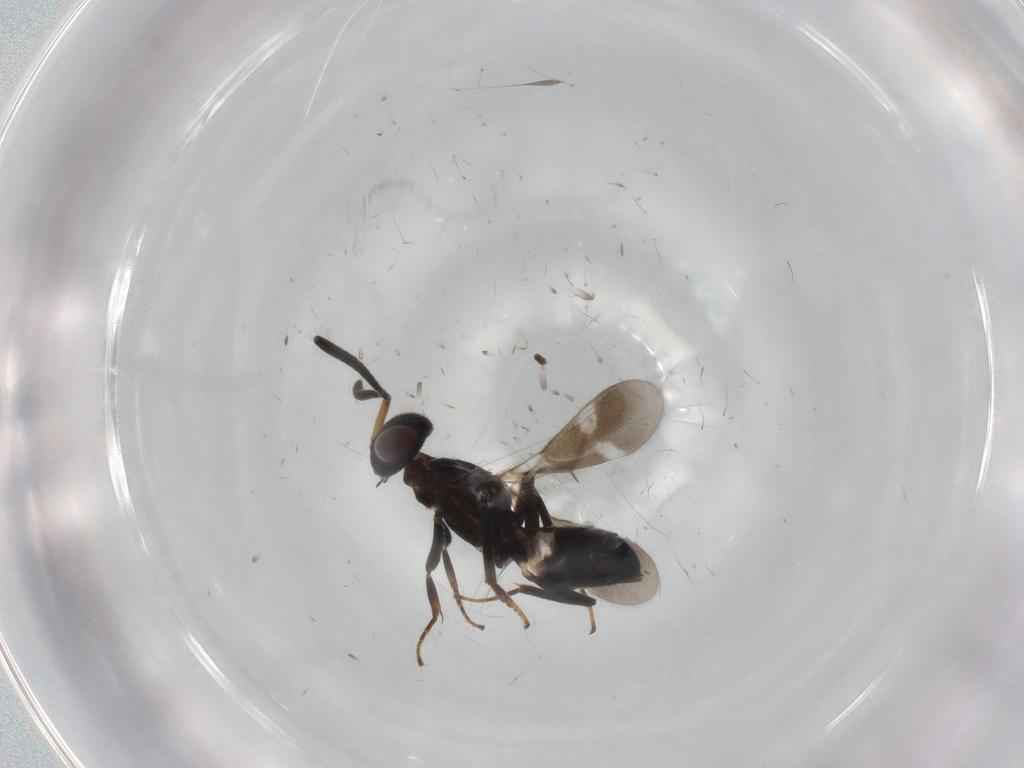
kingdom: Animalia
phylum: Arthropoda
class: Insecta
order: Hymenoptera
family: Eupelmidae
